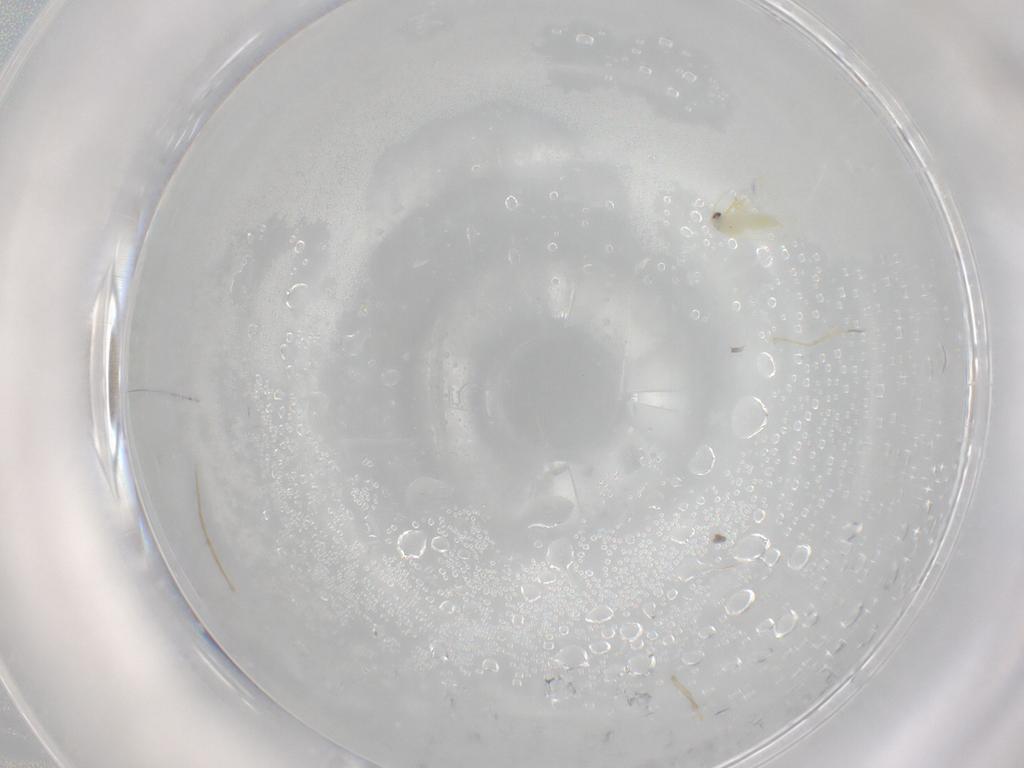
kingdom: Animalia
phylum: Arthropoda
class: Insecta
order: Hemiptera
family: Aleyrodidae
